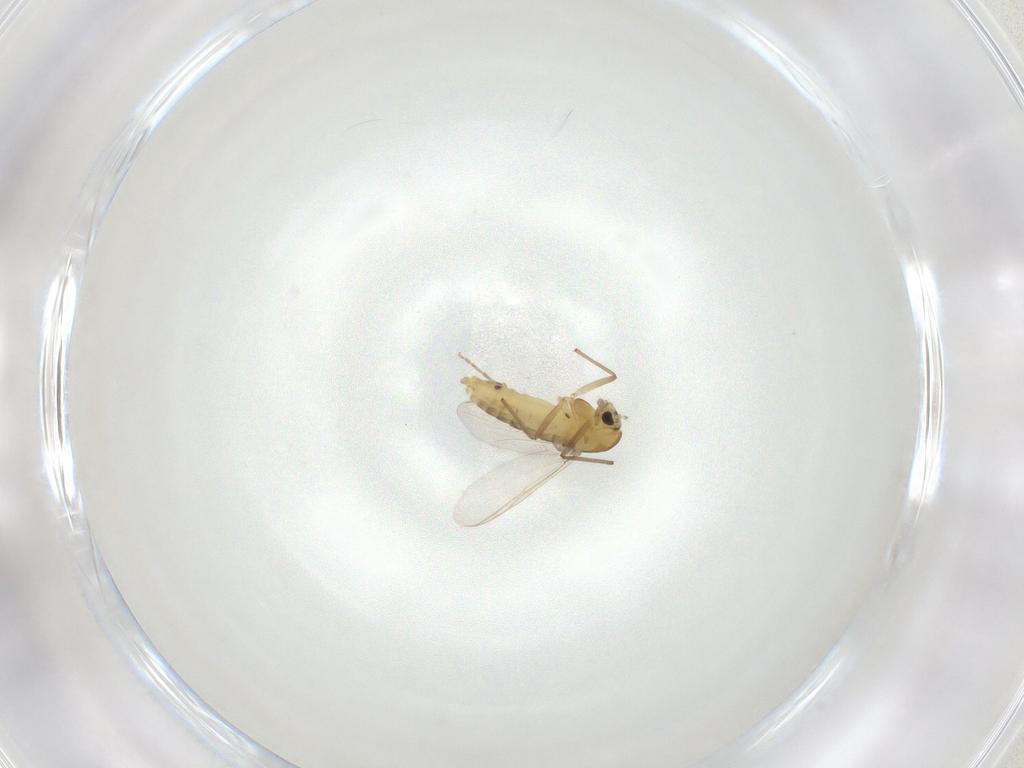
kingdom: Animalia
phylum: Arthropoda
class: Insecta
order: Diptera
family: Chironomidae
